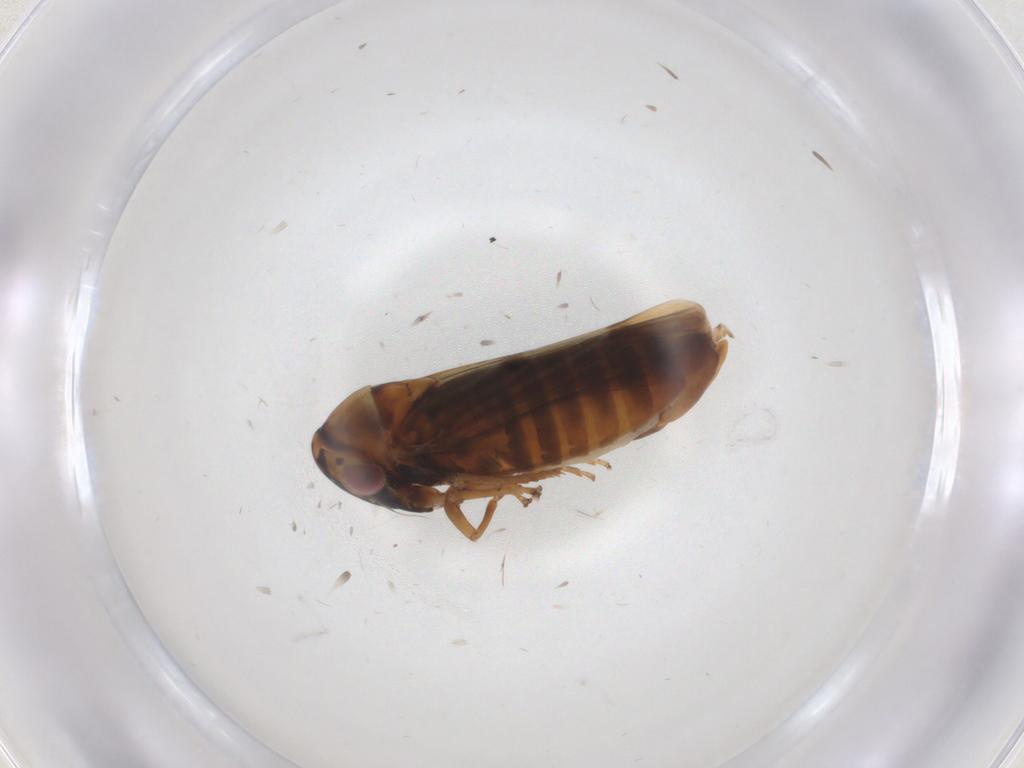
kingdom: Animalia
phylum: Arthropoda
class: Insecta
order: Hemiptera
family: Cicadellidae
